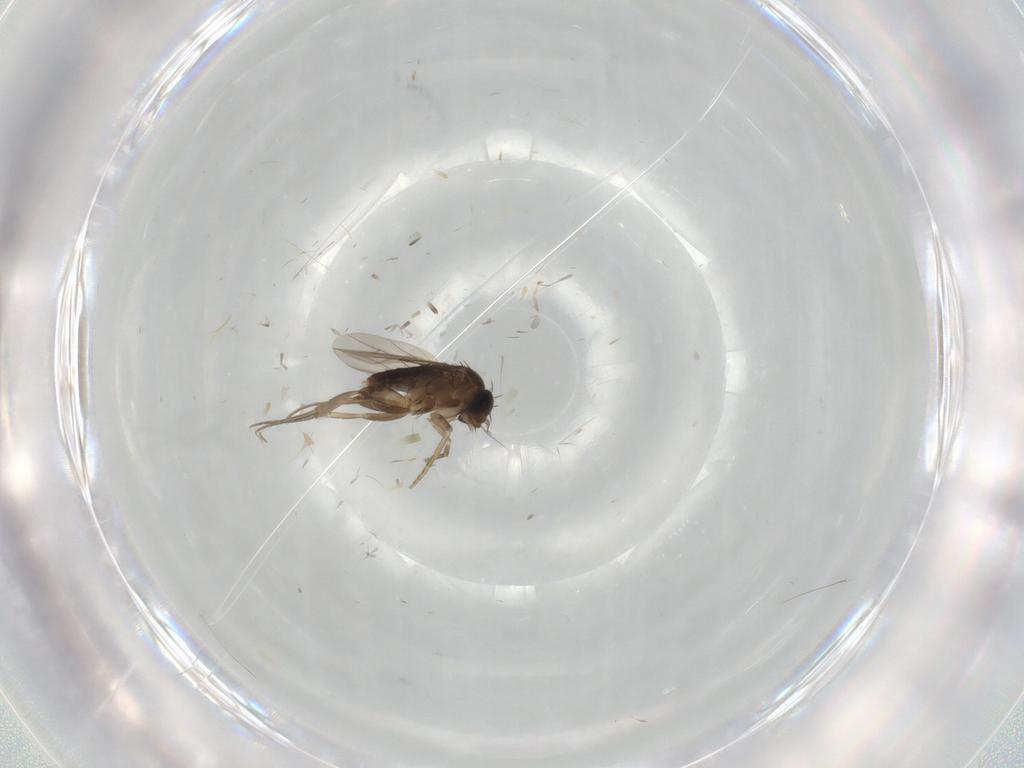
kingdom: Animalia
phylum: Arthropoda
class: Insecta
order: Diptera
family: Phoridae
